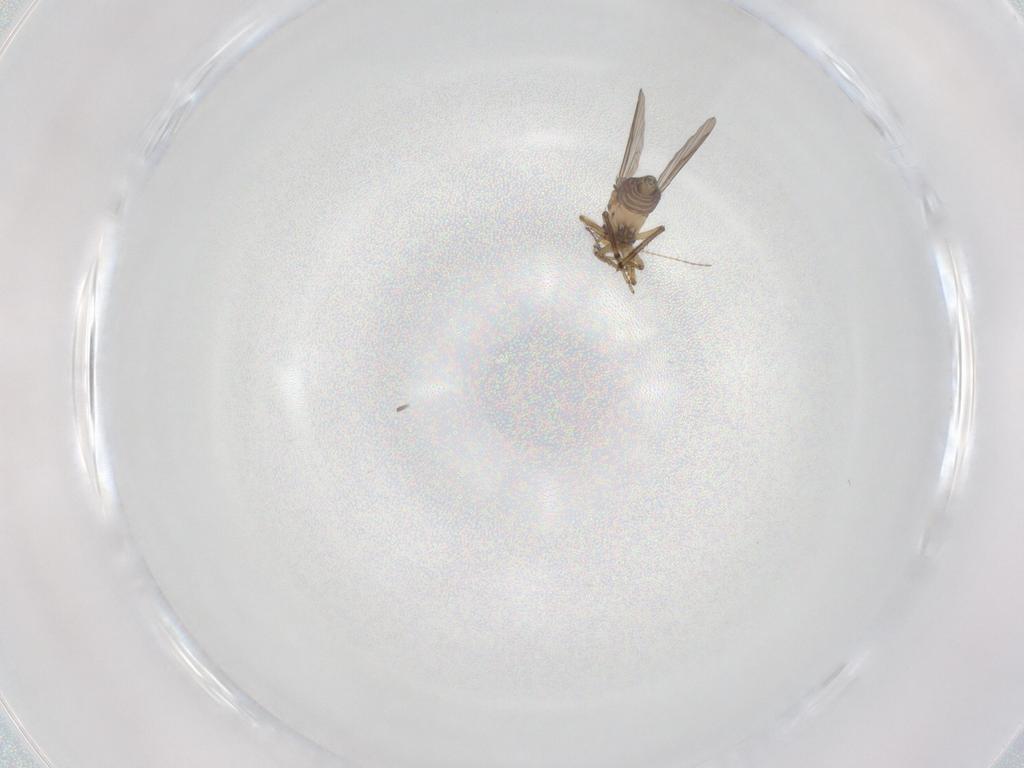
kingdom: Animalia
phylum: Arthropoda
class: Insecta
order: Diptera
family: Ceratopogonidae
